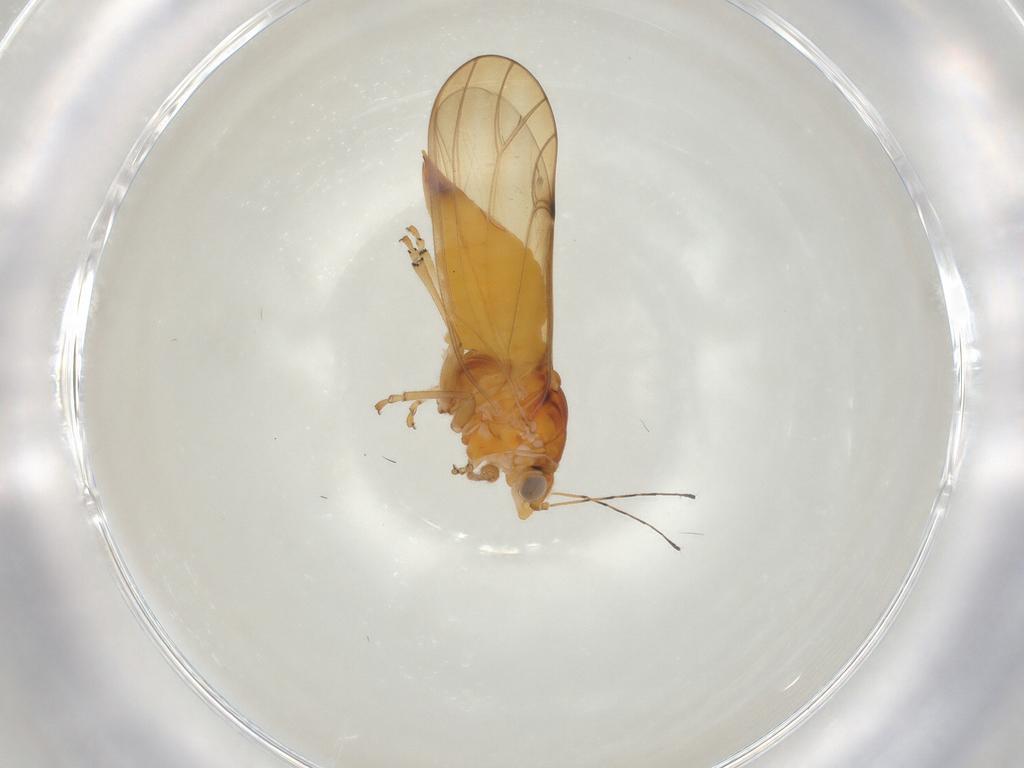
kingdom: Animalia
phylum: Arthropoda
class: Insecta
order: Diptera
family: Cecidomyiidae
